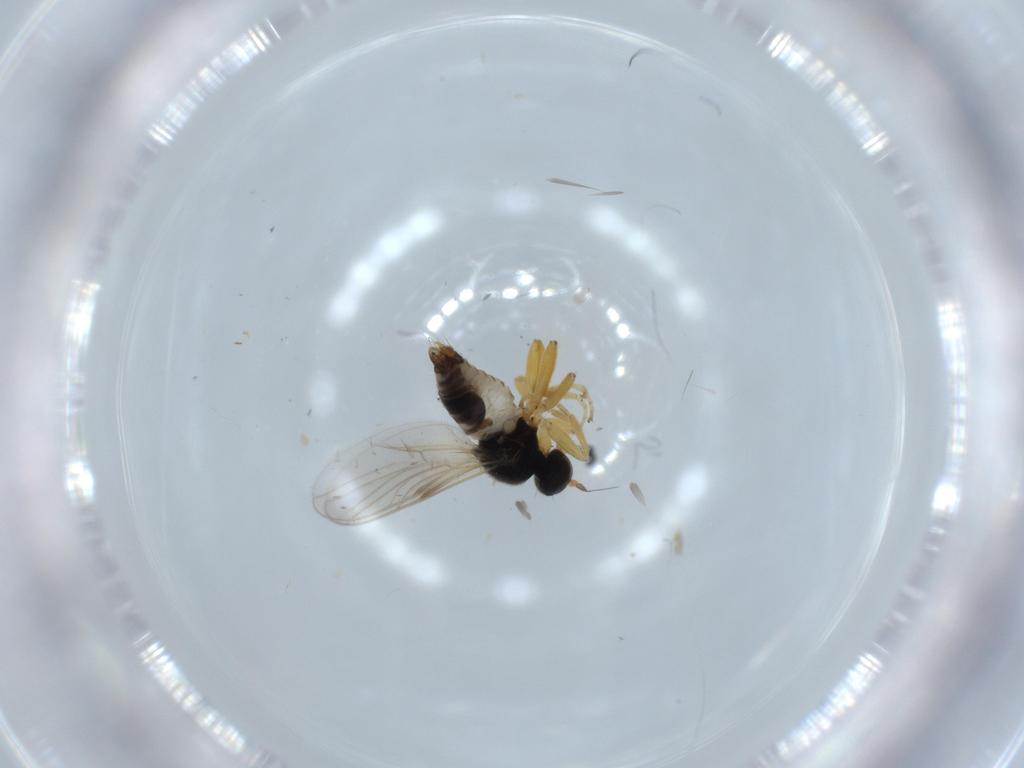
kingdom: Animalia
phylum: Arthropoda
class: Insecta
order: Diptera
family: Hybotidae
